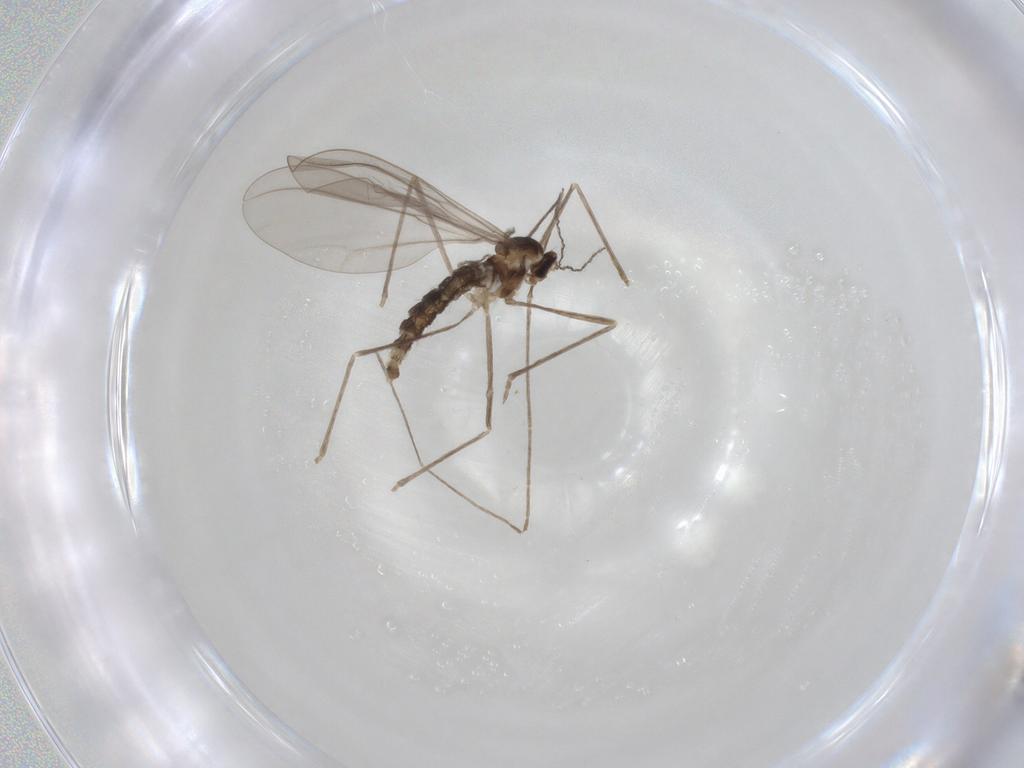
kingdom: Animalia
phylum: Arthropoda
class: Insecta
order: Diptera
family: Cecidomyiidae
